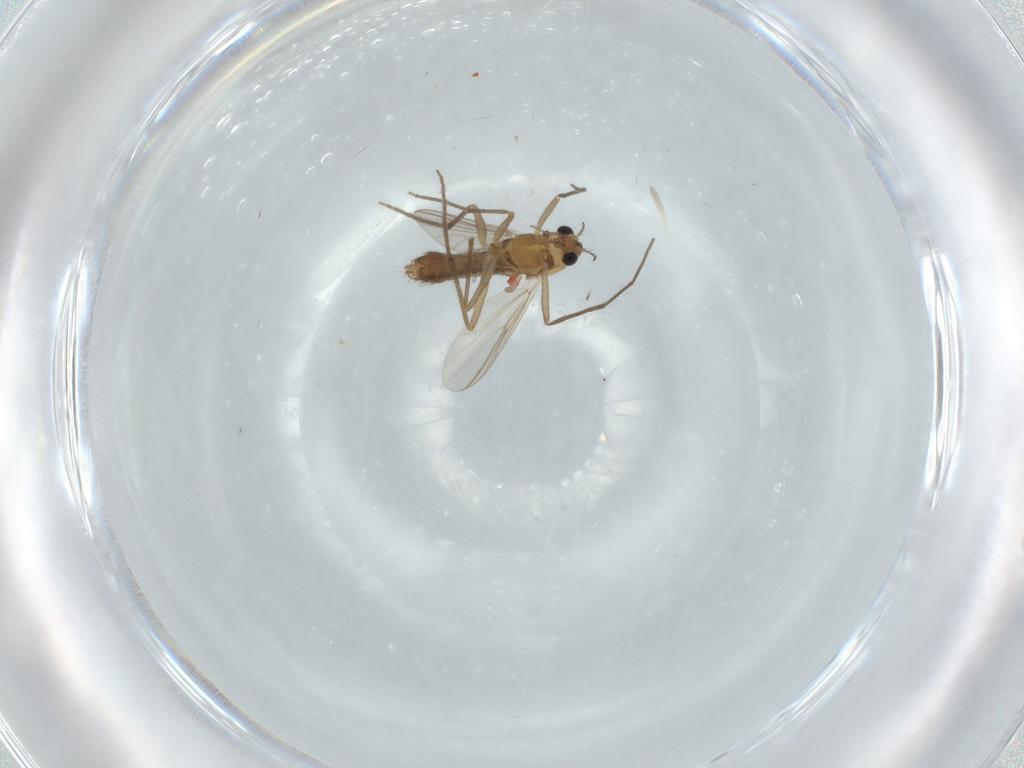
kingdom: Animalia
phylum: Arthropoda
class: Insecta
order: Diptera
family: Chironomidae
